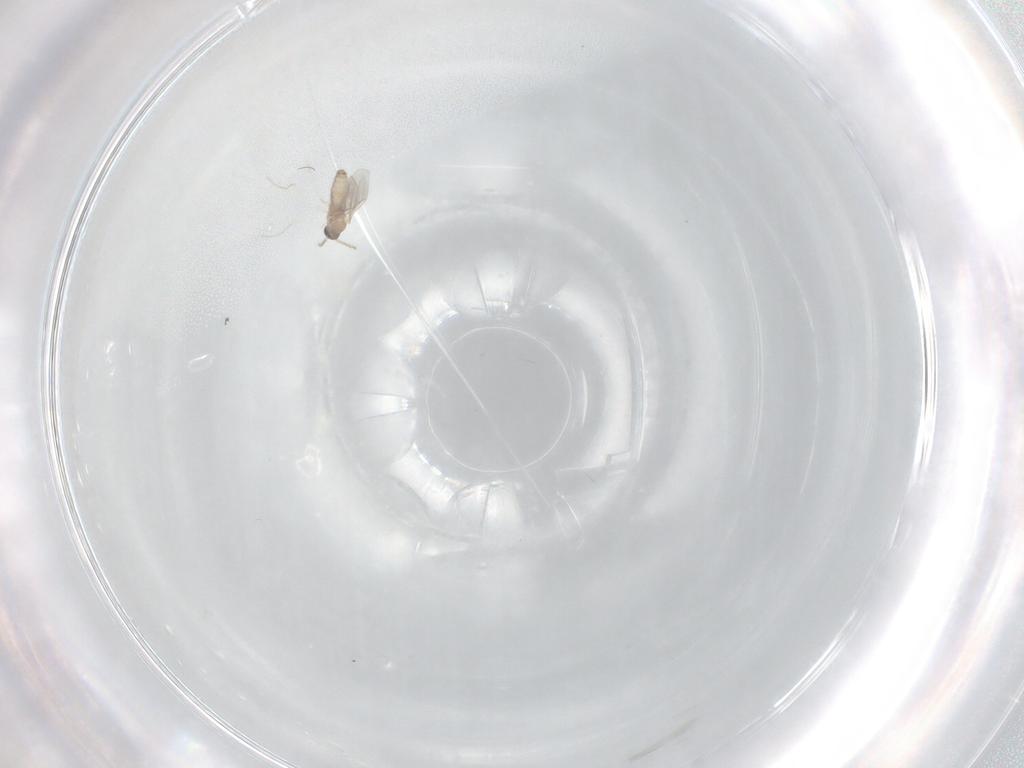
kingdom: Animalia
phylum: Arthropoda
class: Insecta
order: Diptera
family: Cecidomyiidae
